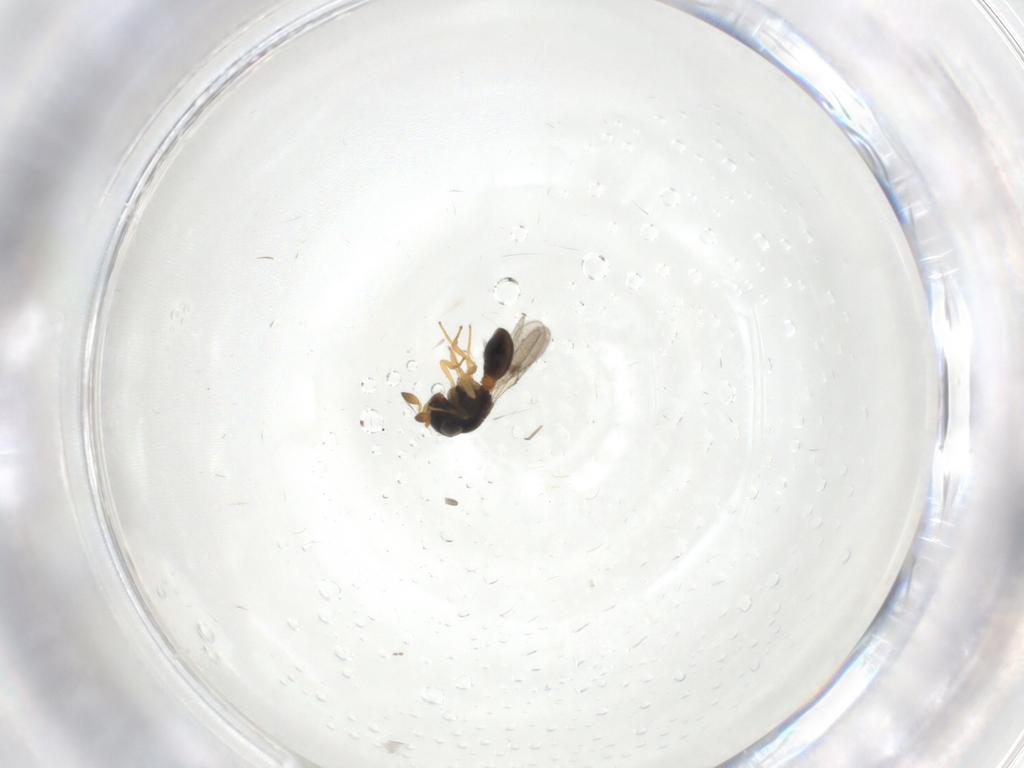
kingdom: Animalia
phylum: Arthropoda
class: Insecta
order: Hymenoptera
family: Scelionidae
